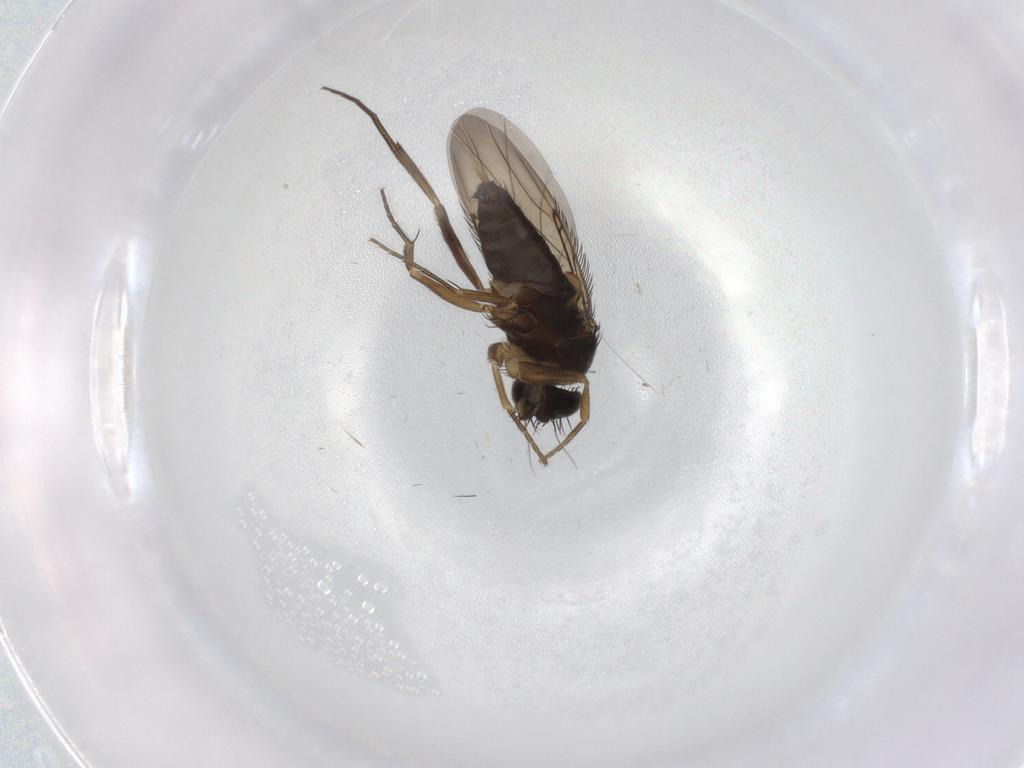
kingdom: Animalia
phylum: Arthropoda
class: Insecta
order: Diptera
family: Phoridae
